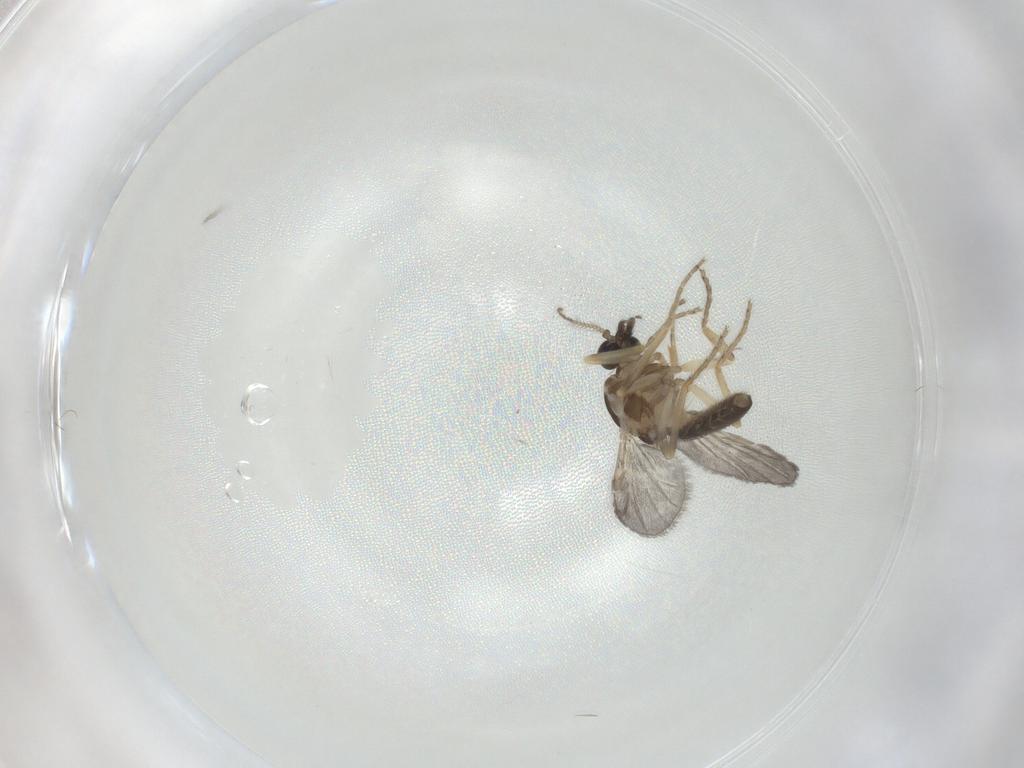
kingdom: Animalia
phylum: Arthropoda
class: Insecta
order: Diptera
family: Ceratopogonidae
